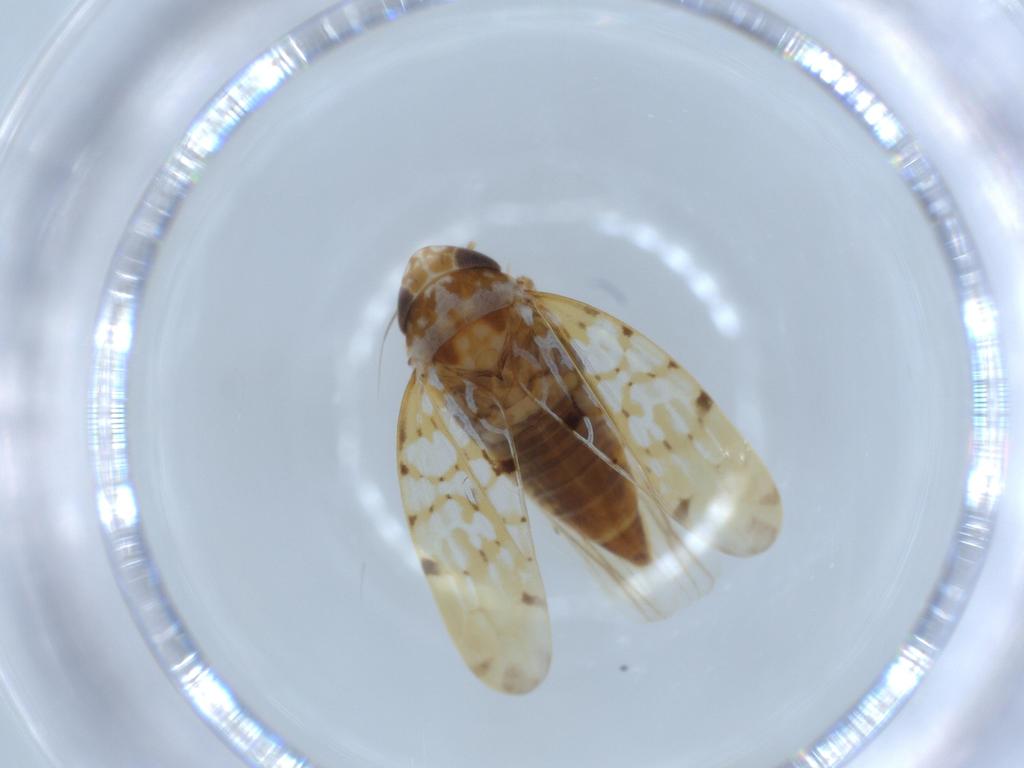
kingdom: Animalia
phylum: Arthropoda
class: Insecta
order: Hemiptera
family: Cicadellidae
